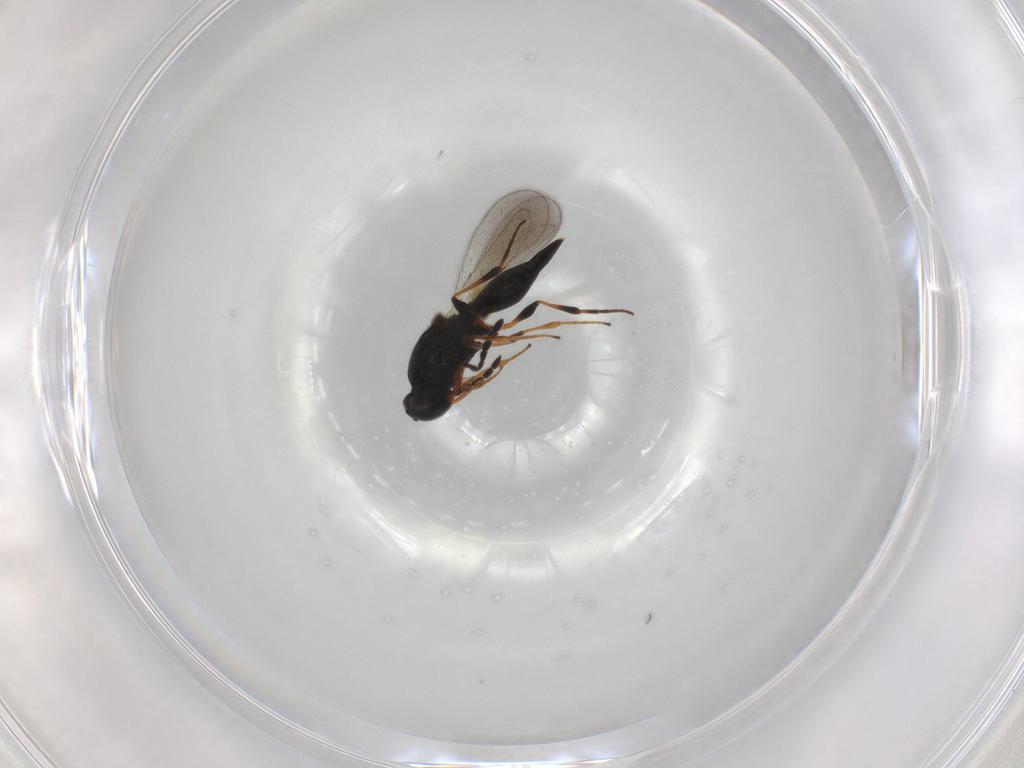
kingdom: Animalia
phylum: Arthropoda
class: Insecta
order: Hymenoptera
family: Platygastridae
